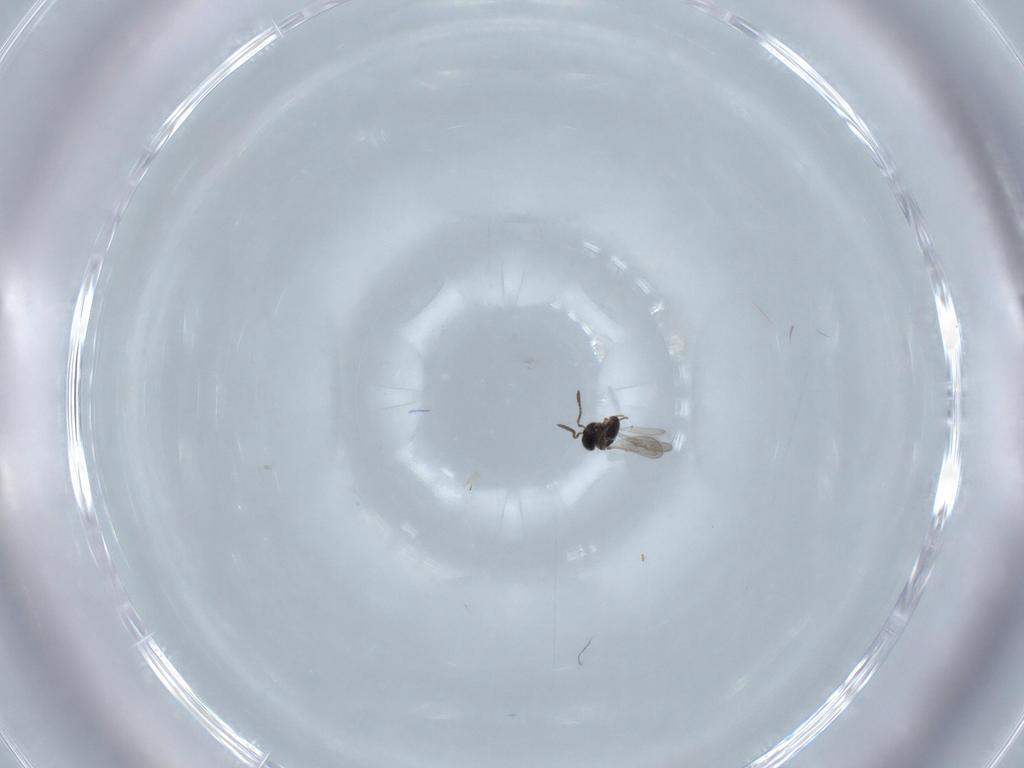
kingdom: Animalia
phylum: Arthropoda
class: Insecta
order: Hymenoptera
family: Scelionidae
